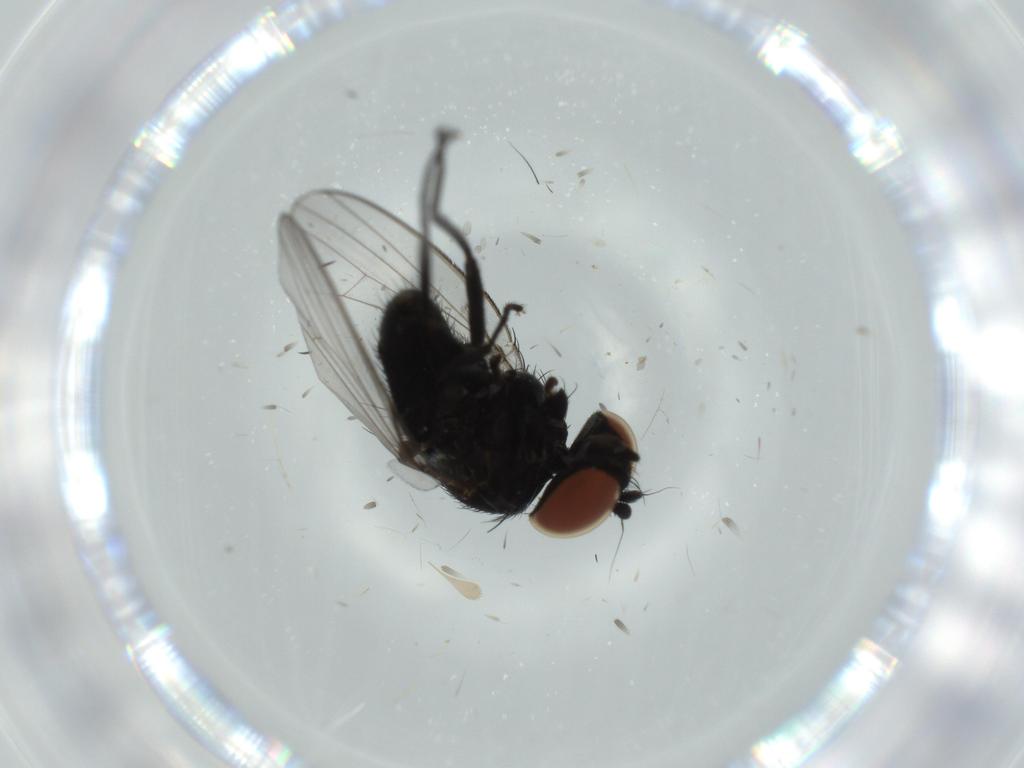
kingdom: Animalia
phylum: Arthropoda
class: Insecta
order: Diptera
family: Milichiidae
